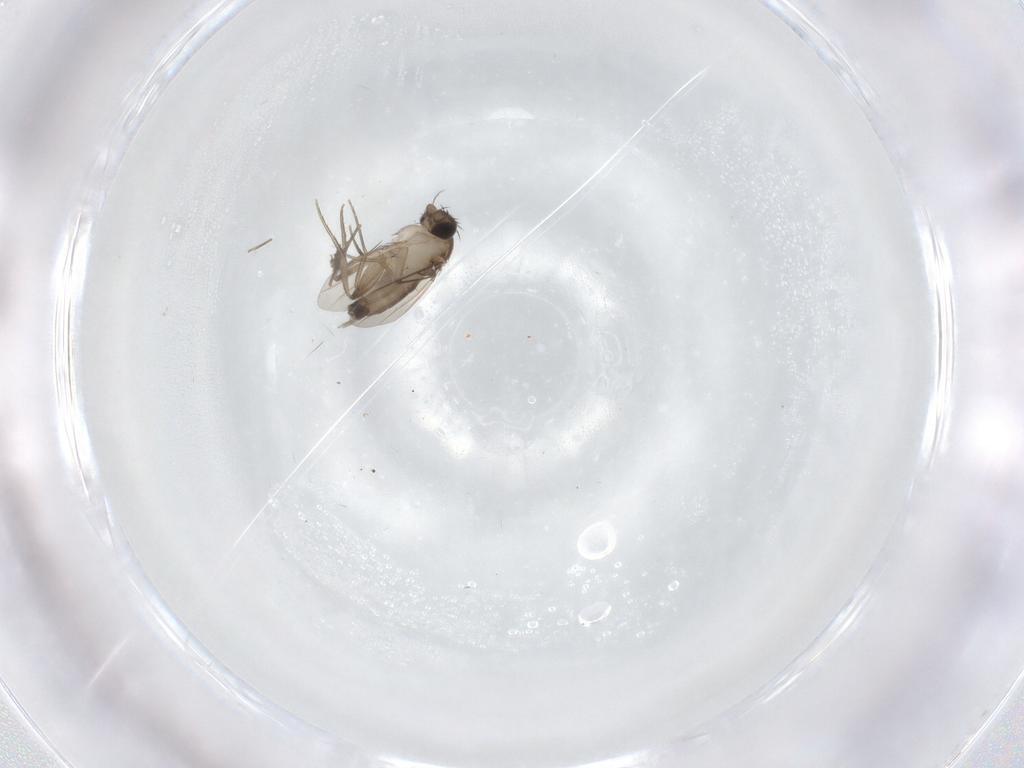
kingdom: Animalia
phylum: Arthropoda
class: Insecta
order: Diptera
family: Phoridae
